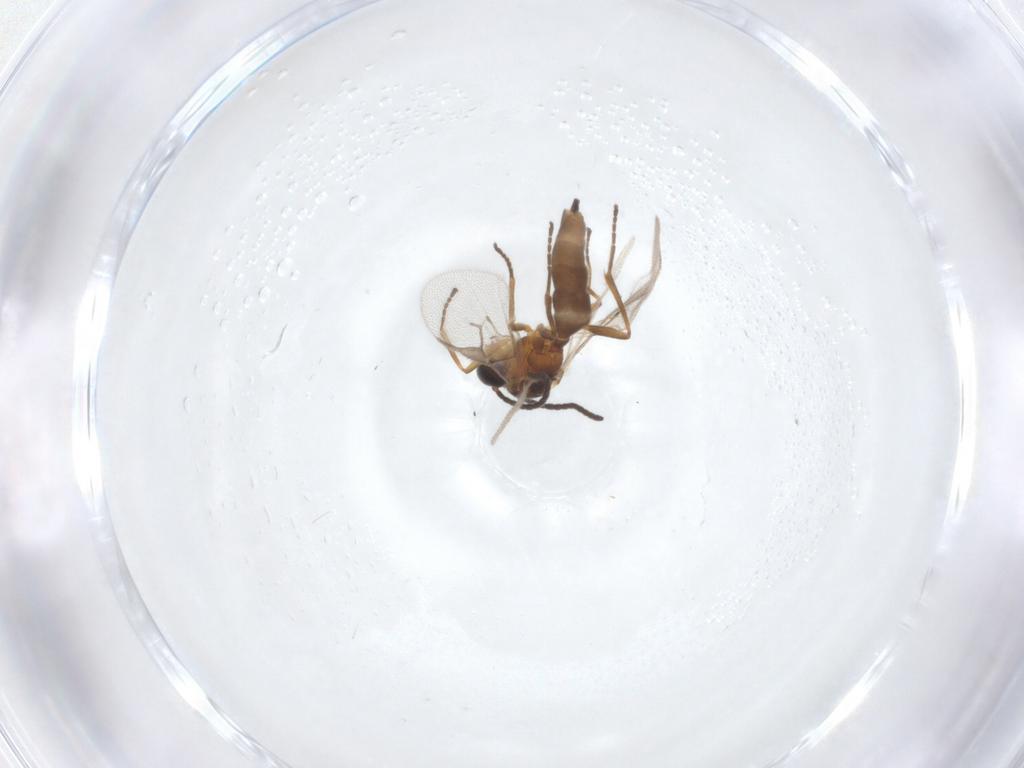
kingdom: Animalia
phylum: Arthropoda
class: Insecta
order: Hymenoptera
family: Braconidae
